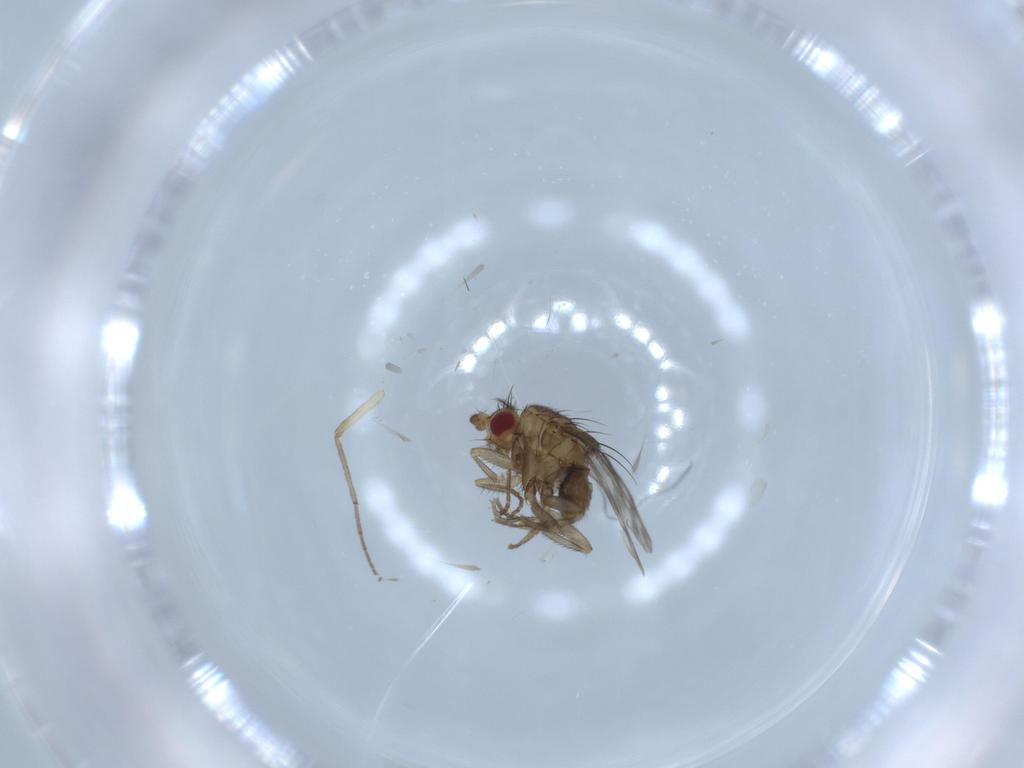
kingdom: Animalia
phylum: Arthropoda
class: Insecta
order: Diptera
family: Sphaeroceridae
